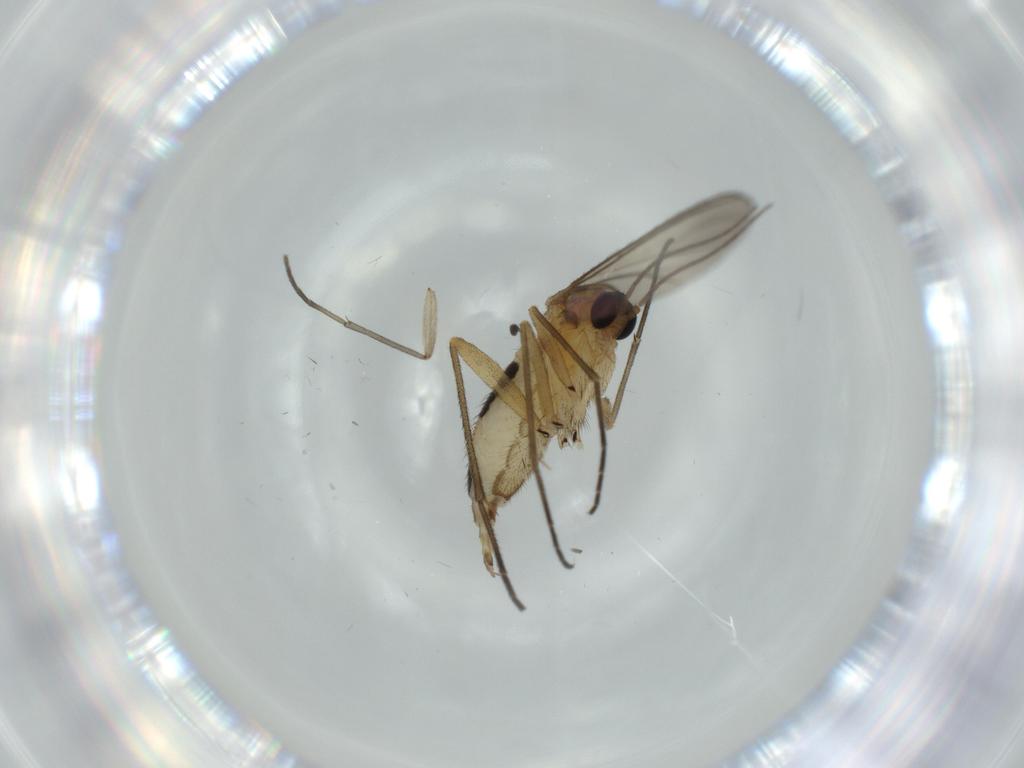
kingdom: Animalia
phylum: Arthropoda
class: Insecta
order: Diptera
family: Sciaridae
